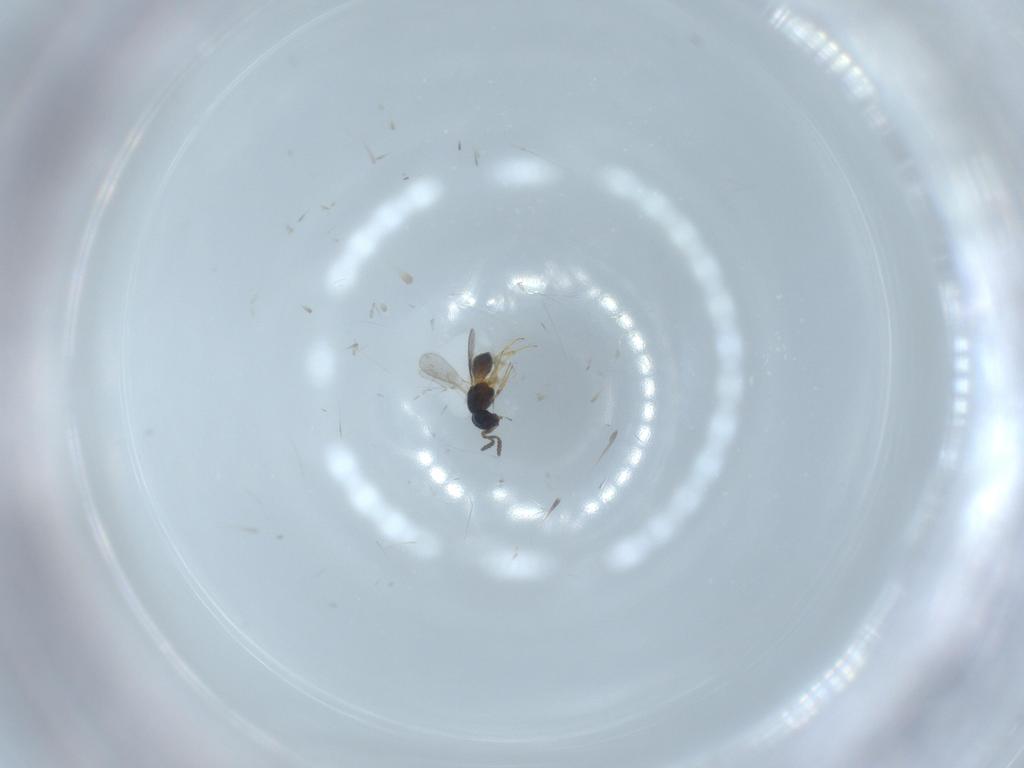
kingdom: Animalia
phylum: Arthropoda
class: Insecta
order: Hymenoptera
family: Scelionidae
